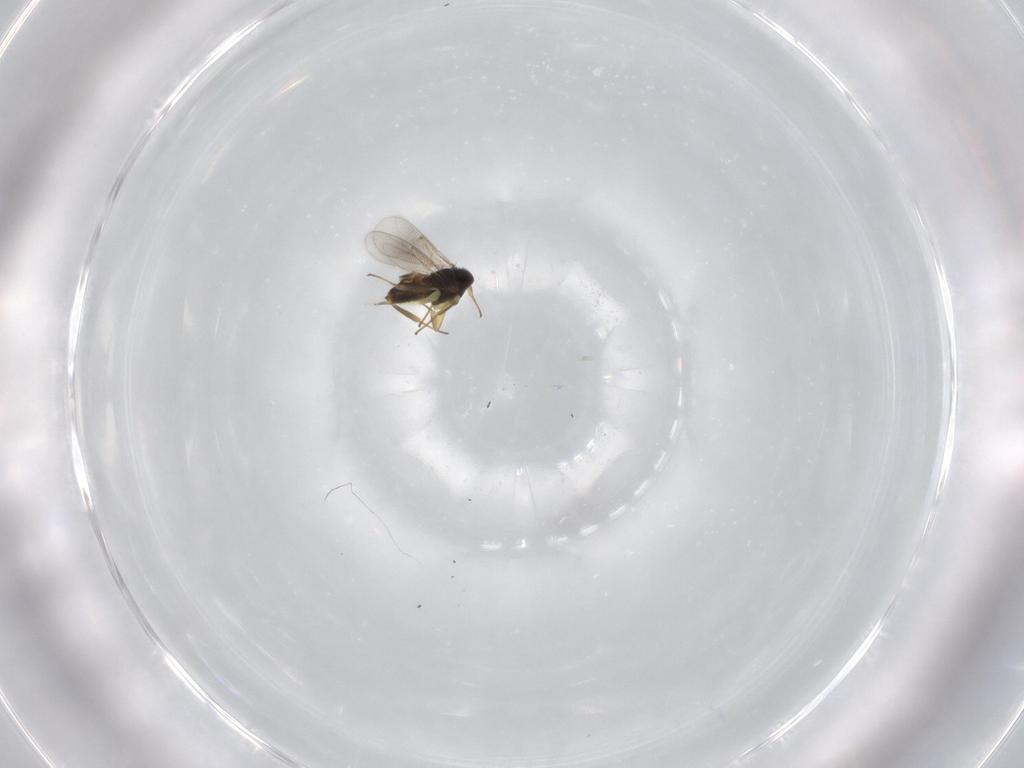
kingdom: Animalia
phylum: Arthropoda
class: Insecta
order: Hymenoptera
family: Aphelinidae
